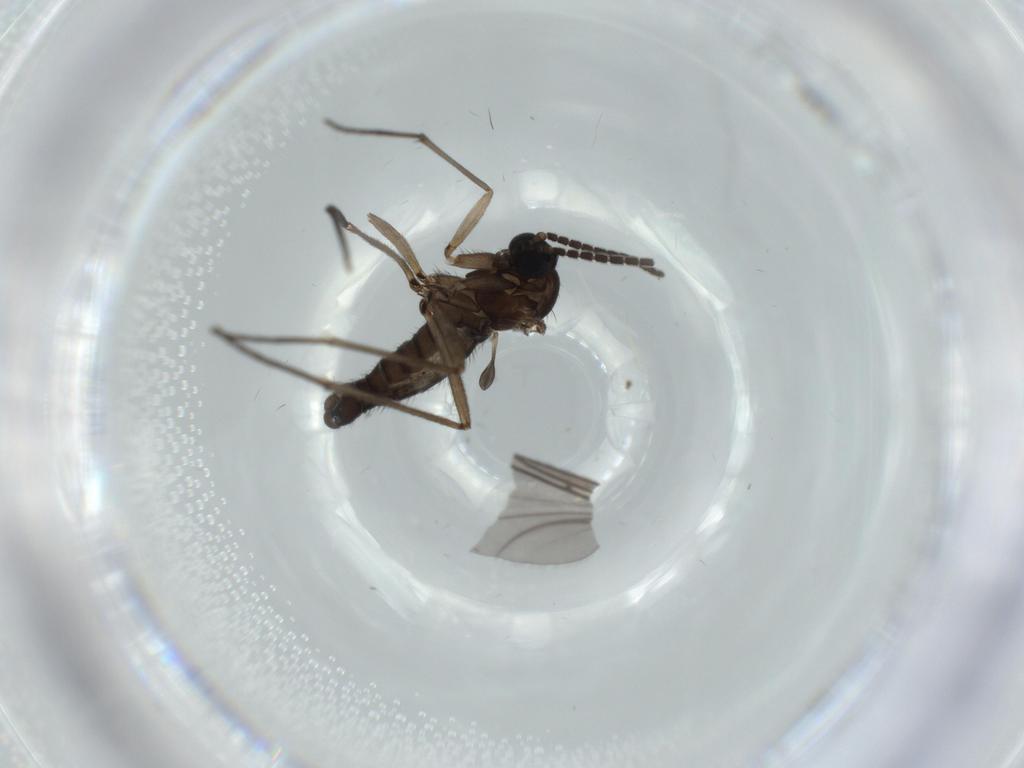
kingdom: Animalia
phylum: Arthropoda
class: Insecta
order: Diptera
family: Sciaridae
